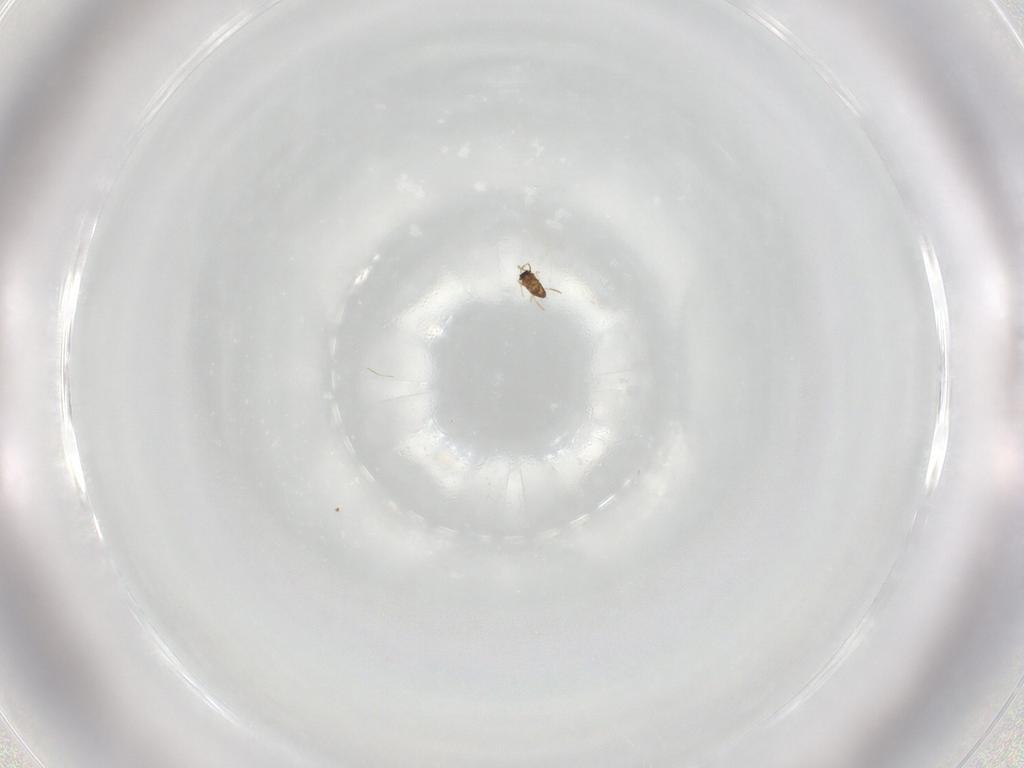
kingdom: Animalia
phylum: Arthropoda
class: Insecta
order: Hymenoptera
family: Mymaridae
